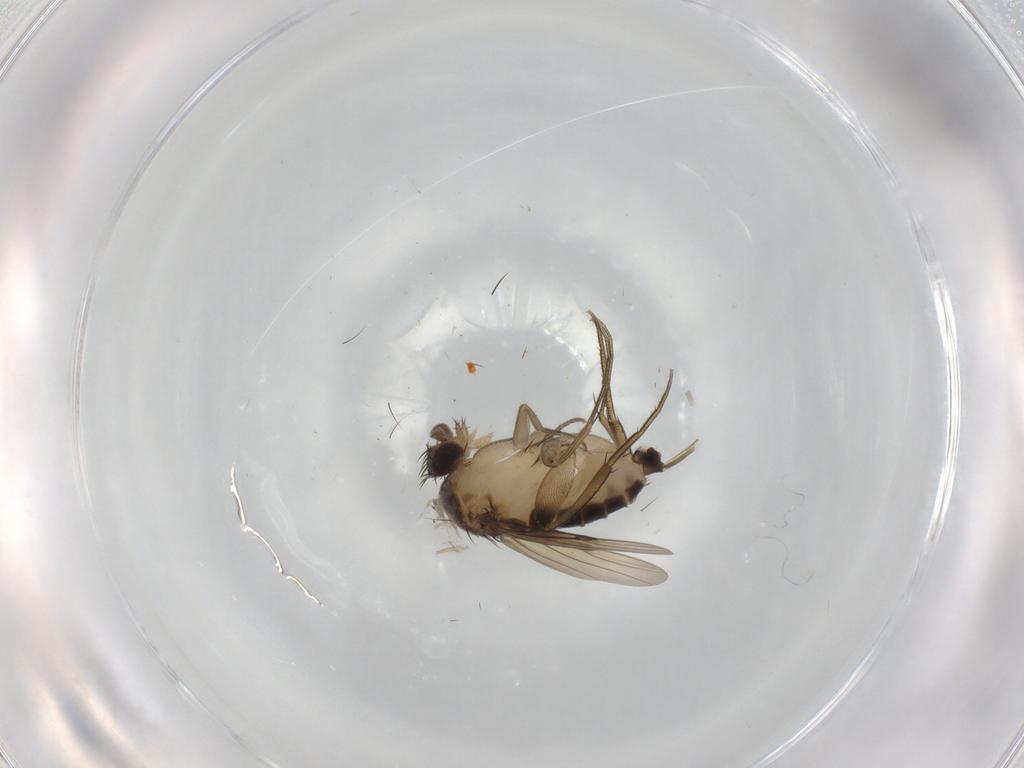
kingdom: Animalia
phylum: Arthropoda
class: Insecta
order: Diptera
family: Phoridae
